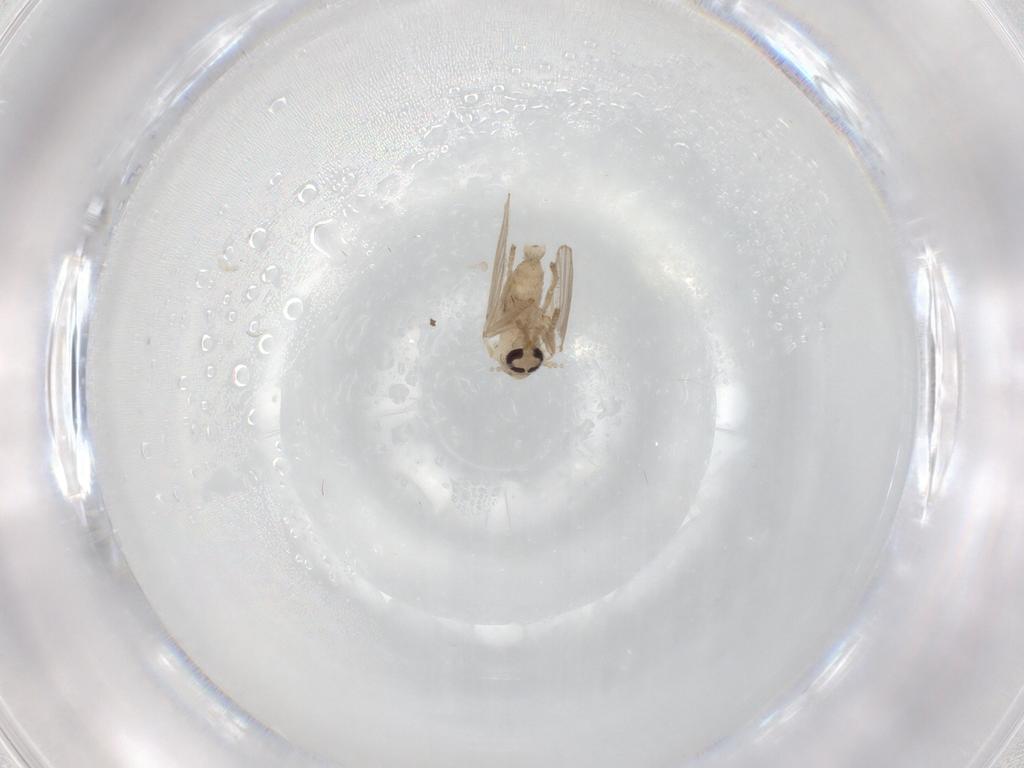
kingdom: Animalia
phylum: Arthropoda
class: Insecta
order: Diptera
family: Psychodidae
